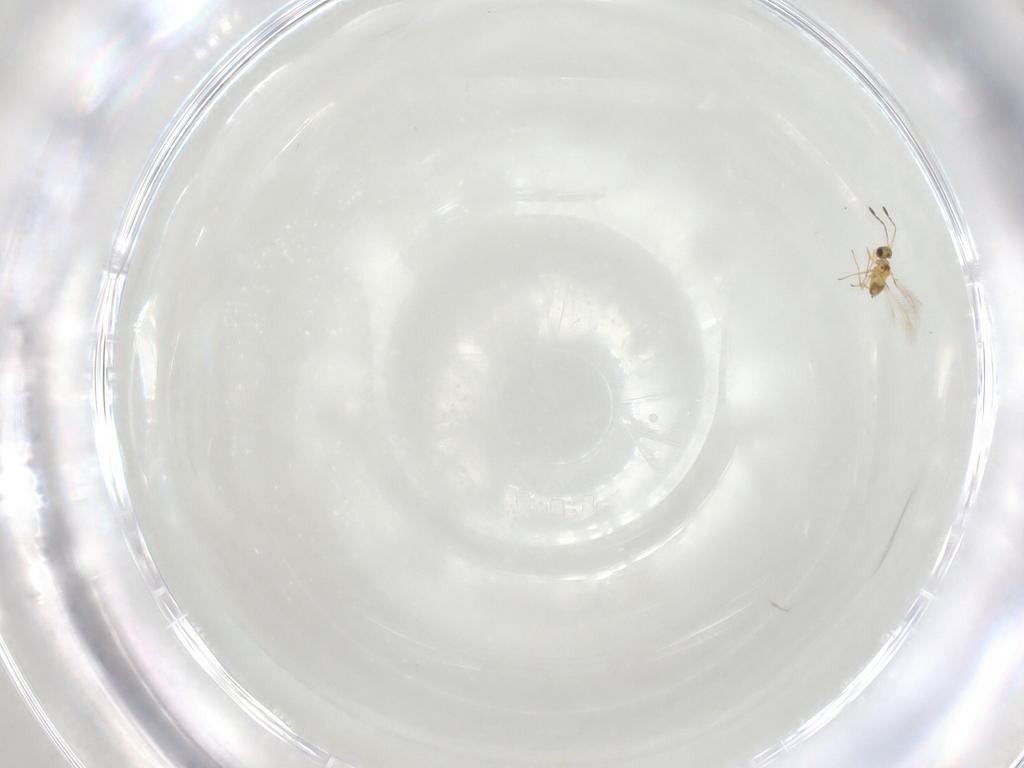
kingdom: Animalia
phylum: Arthropoda
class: Insecta
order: Hymenoptera
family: Mymaridae
